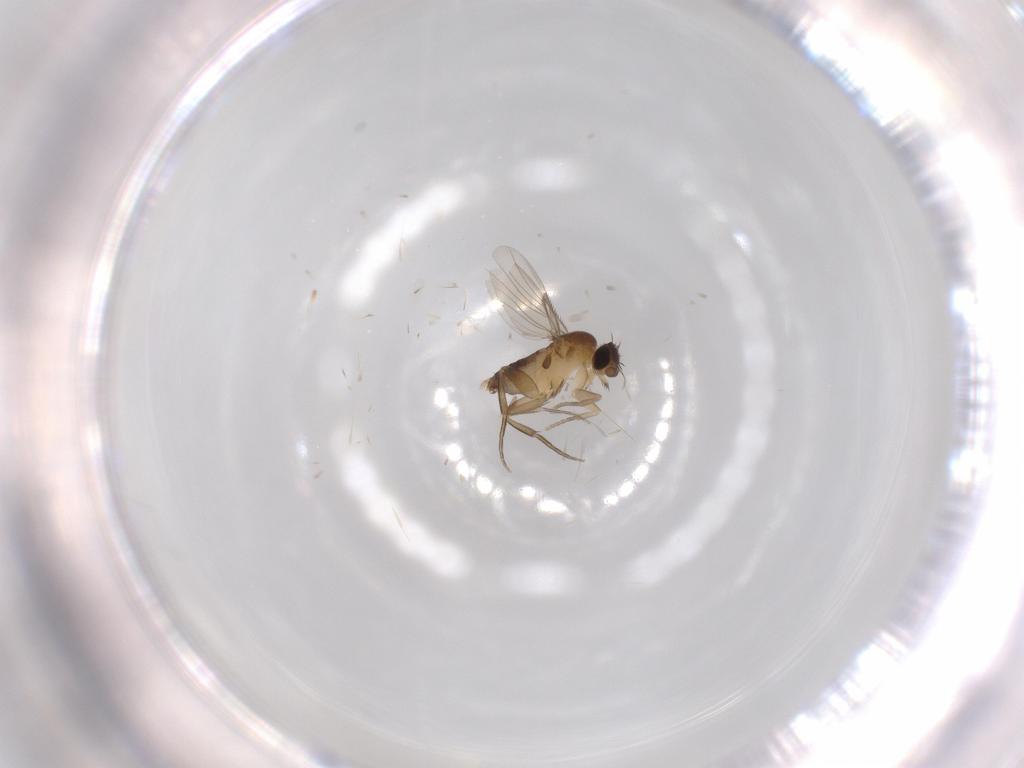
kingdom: Animalia
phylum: Arthropoda
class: Insecta
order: Diptera
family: Phoridae
